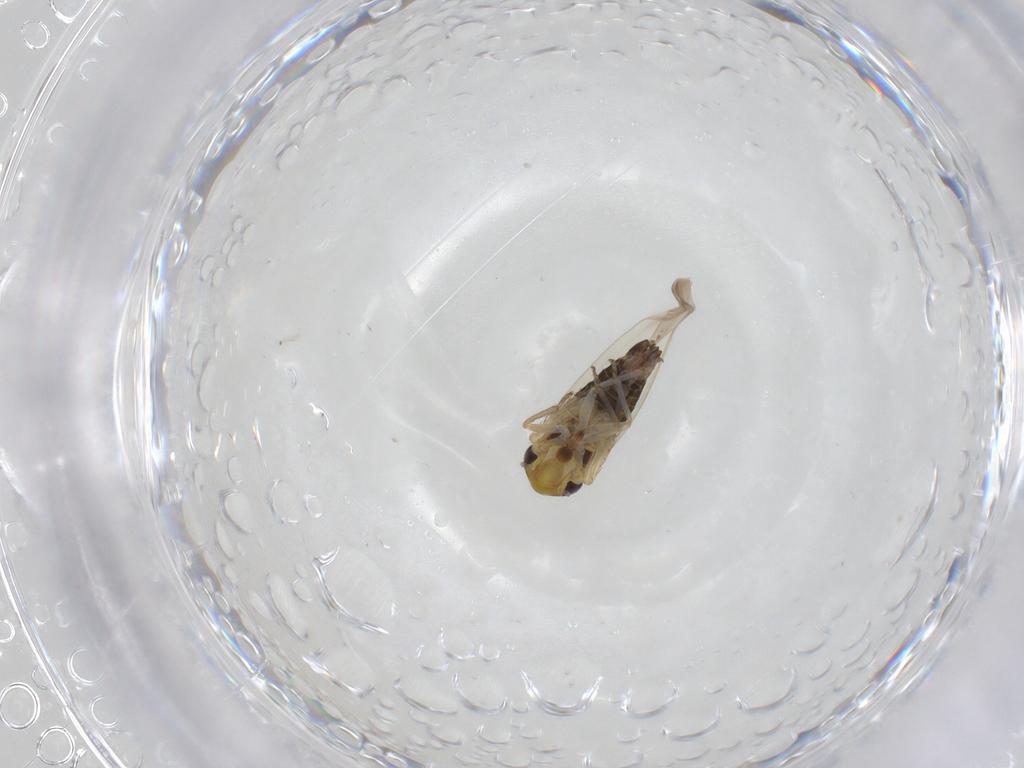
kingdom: Animalia
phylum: Arthropoda
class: Insecta
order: Hemiptera
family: Cicadellidae
